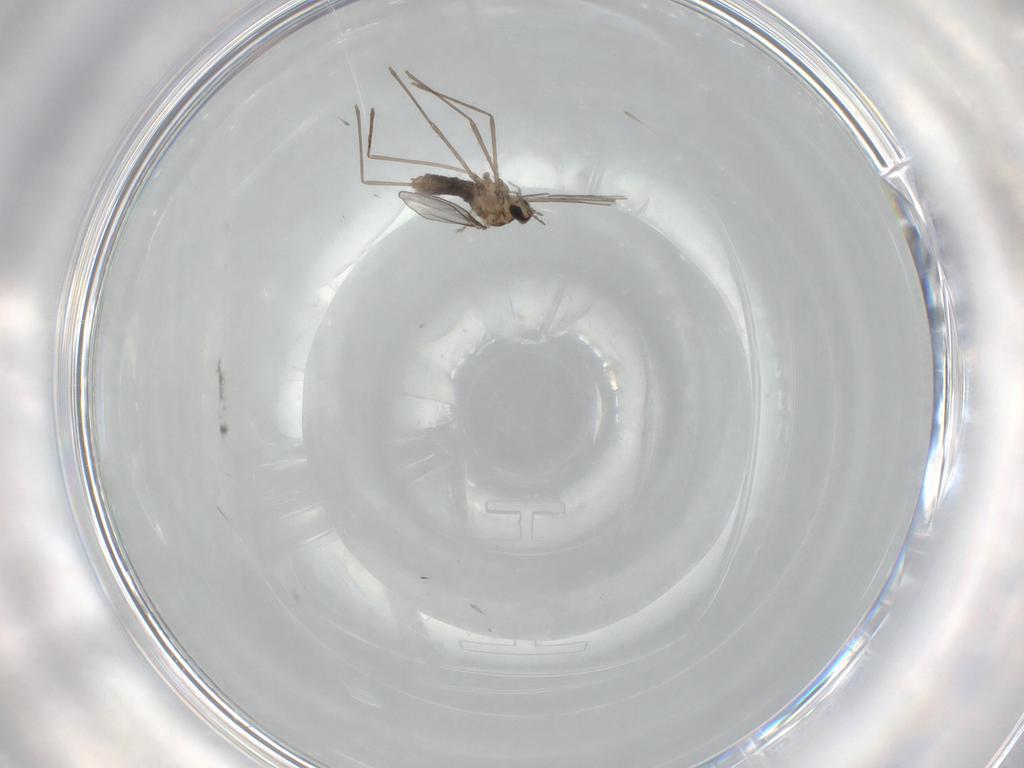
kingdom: Animalia
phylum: Arthropoda
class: Insecta
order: Diptera
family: Cecidomyiidae
